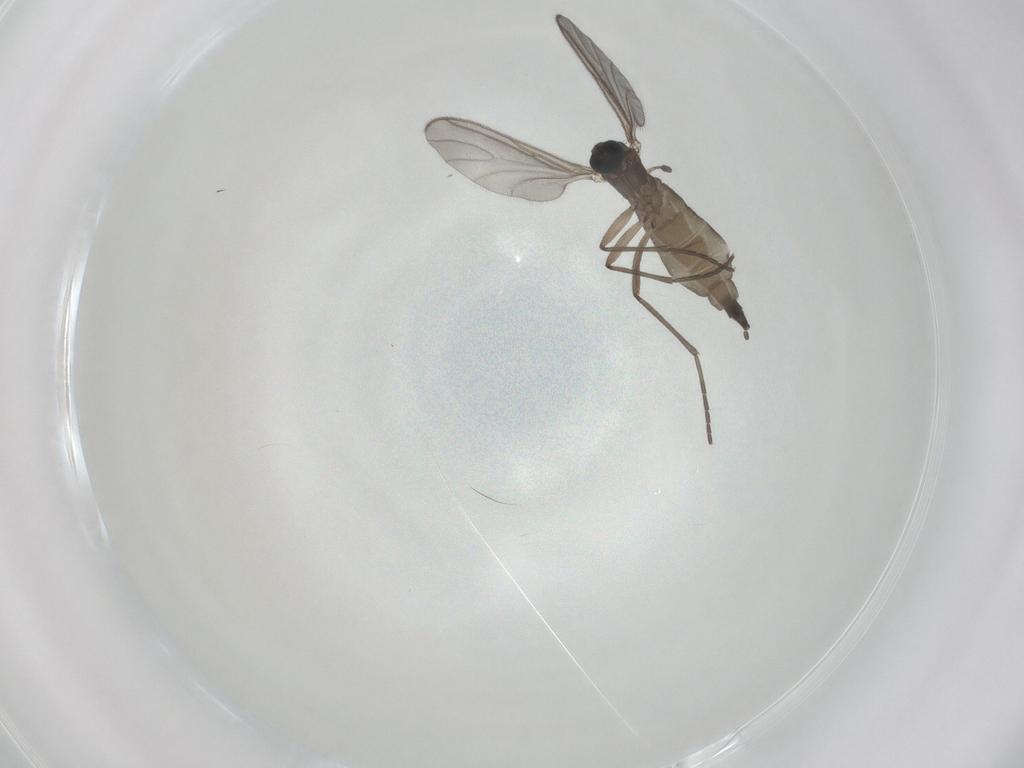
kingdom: Animalia
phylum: Arthropoda
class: Insecta
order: Diptera
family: Sciaridae
